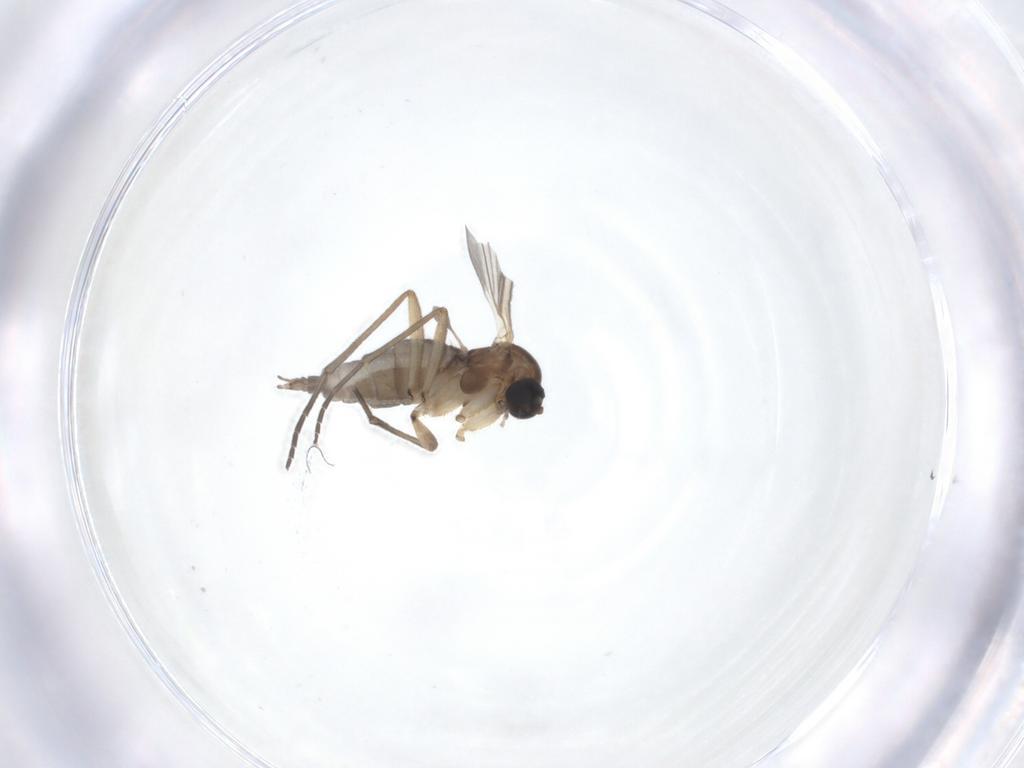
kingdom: Animalia
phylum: Arthropoda
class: Insecta
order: Diptera
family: Sciaridae
